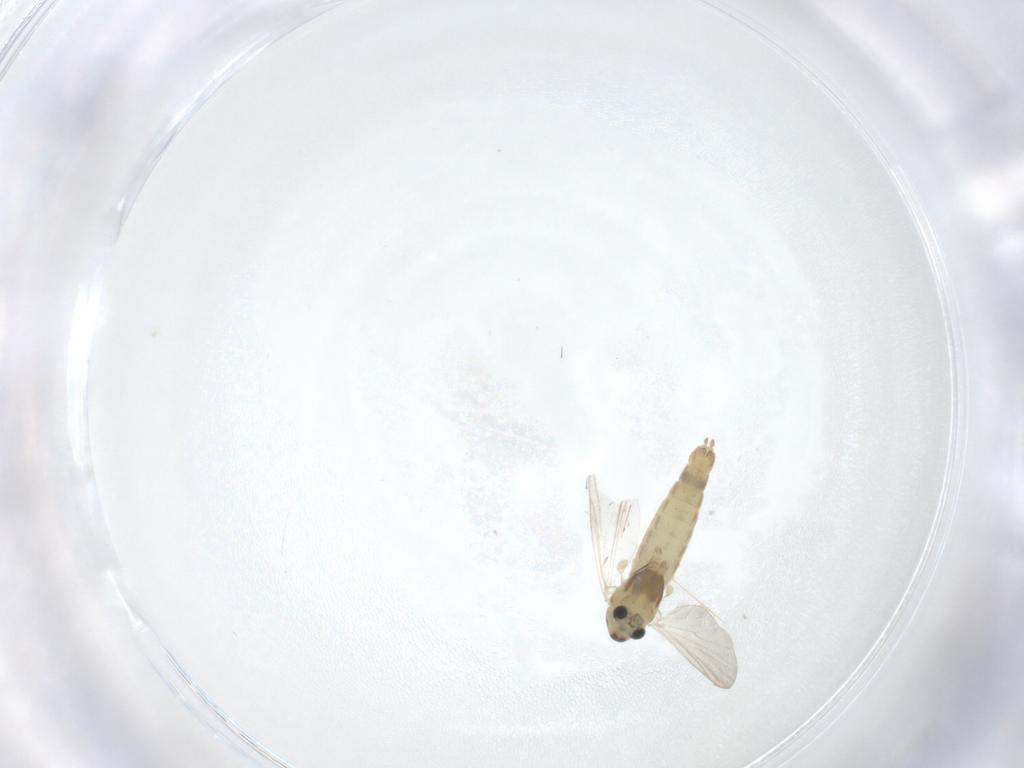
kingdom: Animalia
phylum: Arthropoda
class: Insecta
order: Diptera
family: Chironomidae
